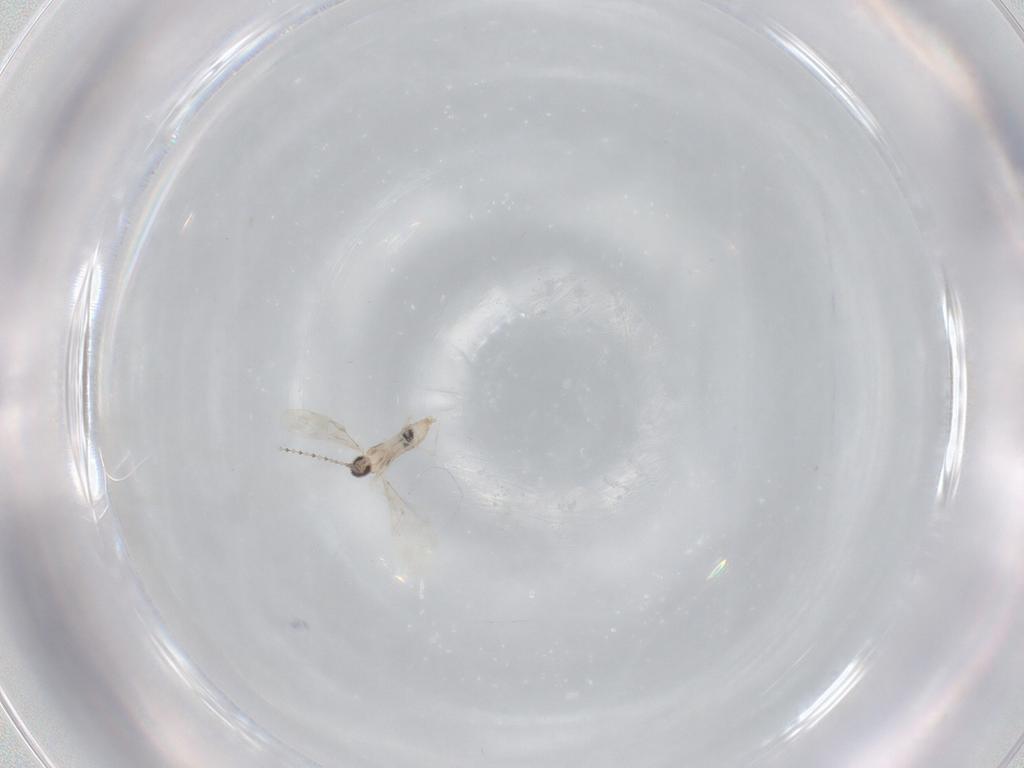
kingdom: Animalia
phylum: Arthropoda
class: Insecta
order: Diptera
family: Cecidomyiidae
